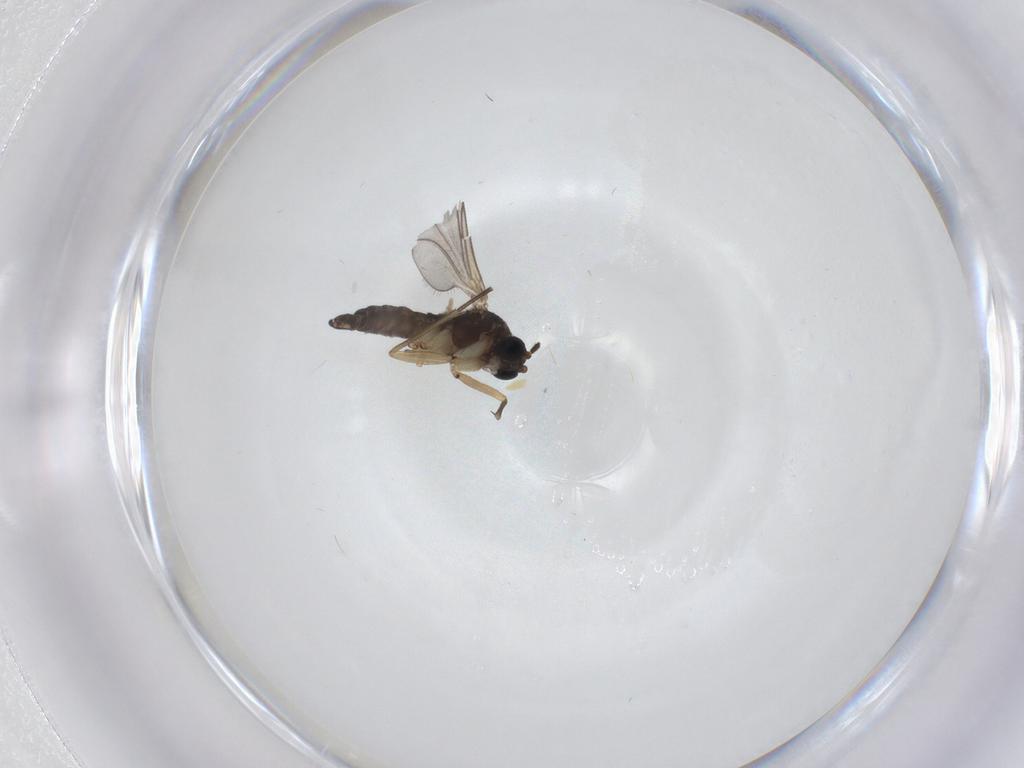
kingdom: Animalia
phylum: Arthropoda
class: Insecta
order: Diptera
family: Sciaridae
